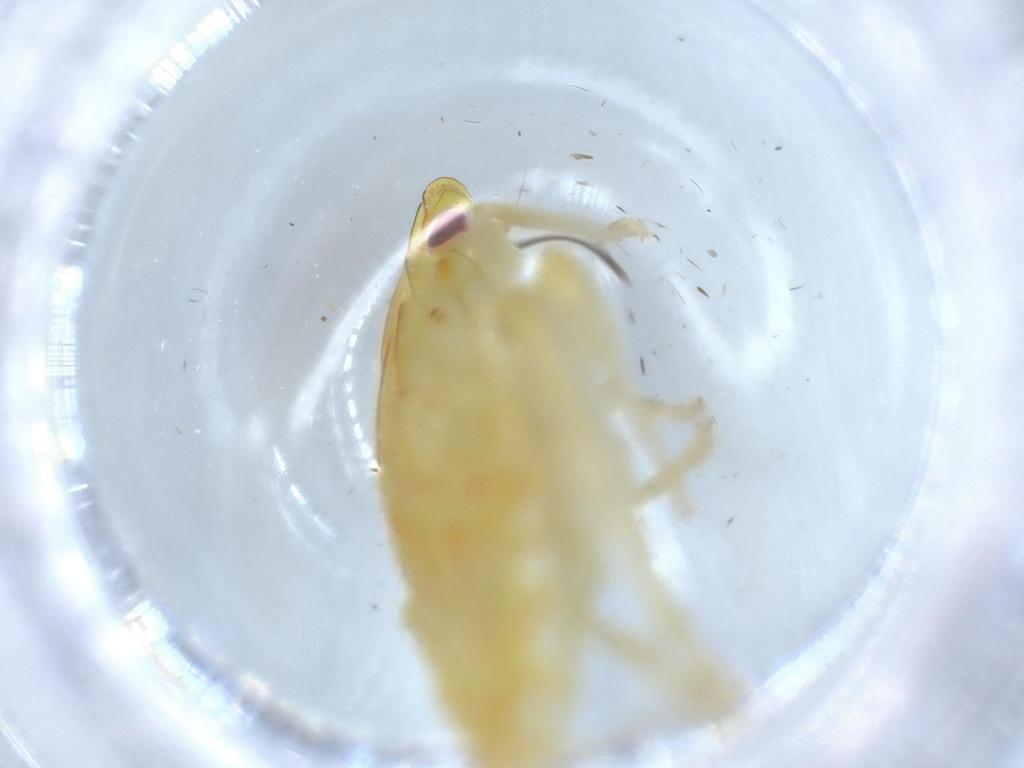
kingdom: Animalia
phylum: Arthropoda
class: Insecta
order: Hemiptera
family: Tropiduchidae
